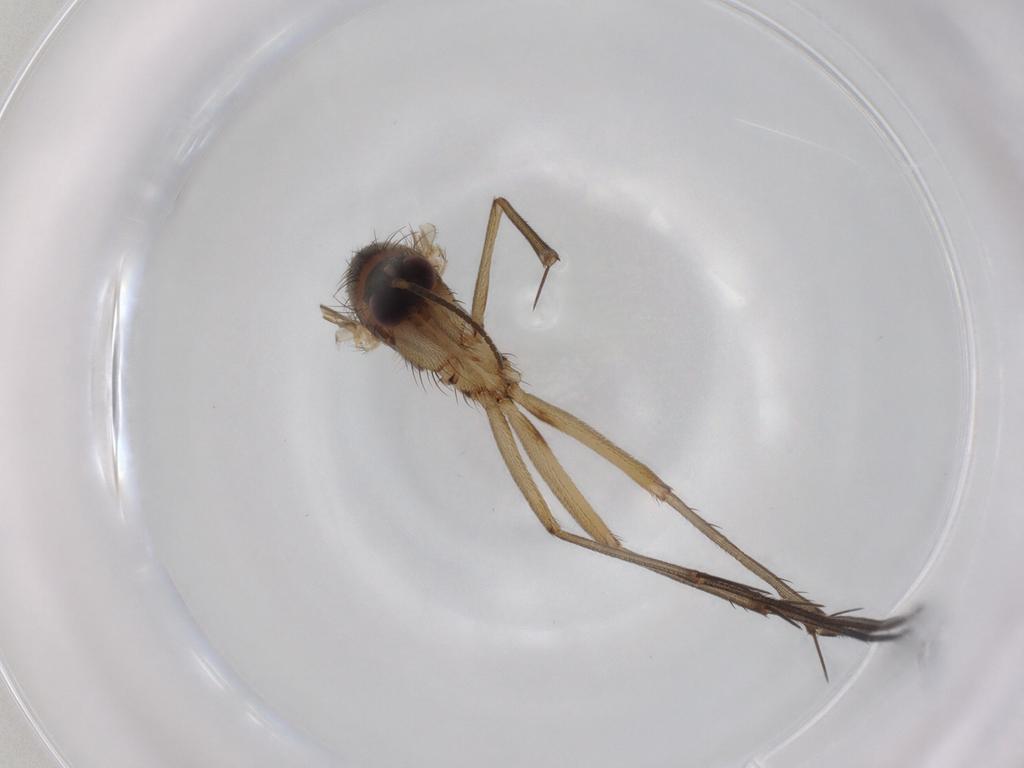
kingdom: Animalia
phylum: Arthropoda
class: Insecta
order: Diptera
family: Mycetophilidae
